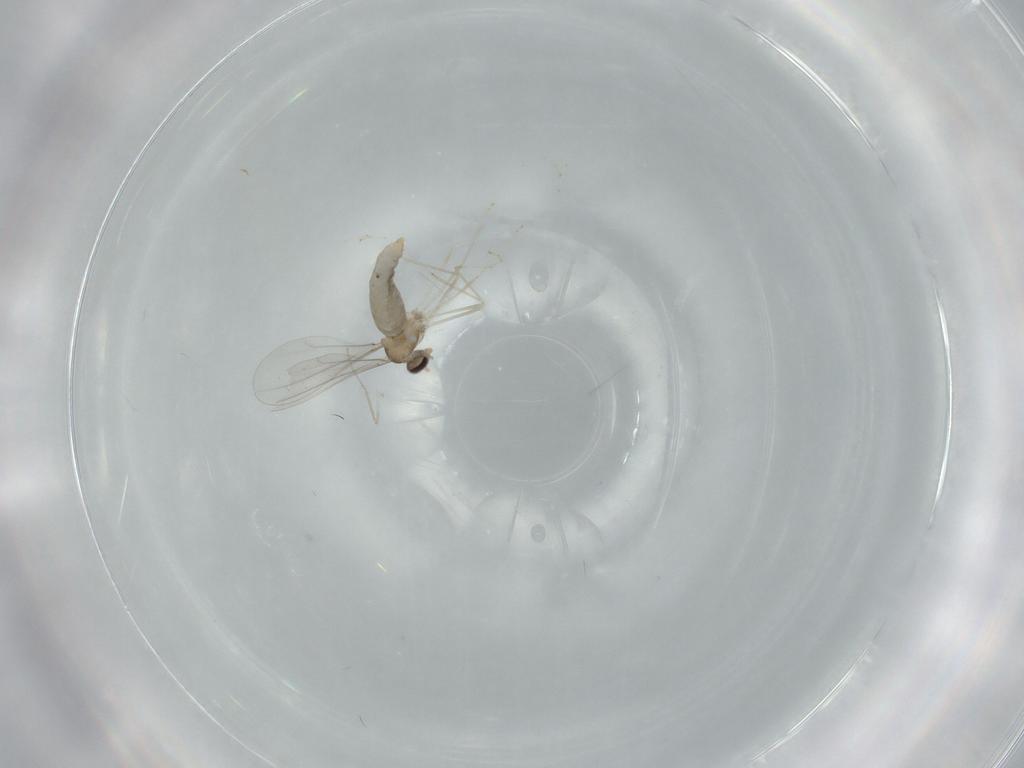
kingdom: Animalia
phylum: Arthropoda
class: Insecta
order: Diptera
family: Cecidomyiidae
